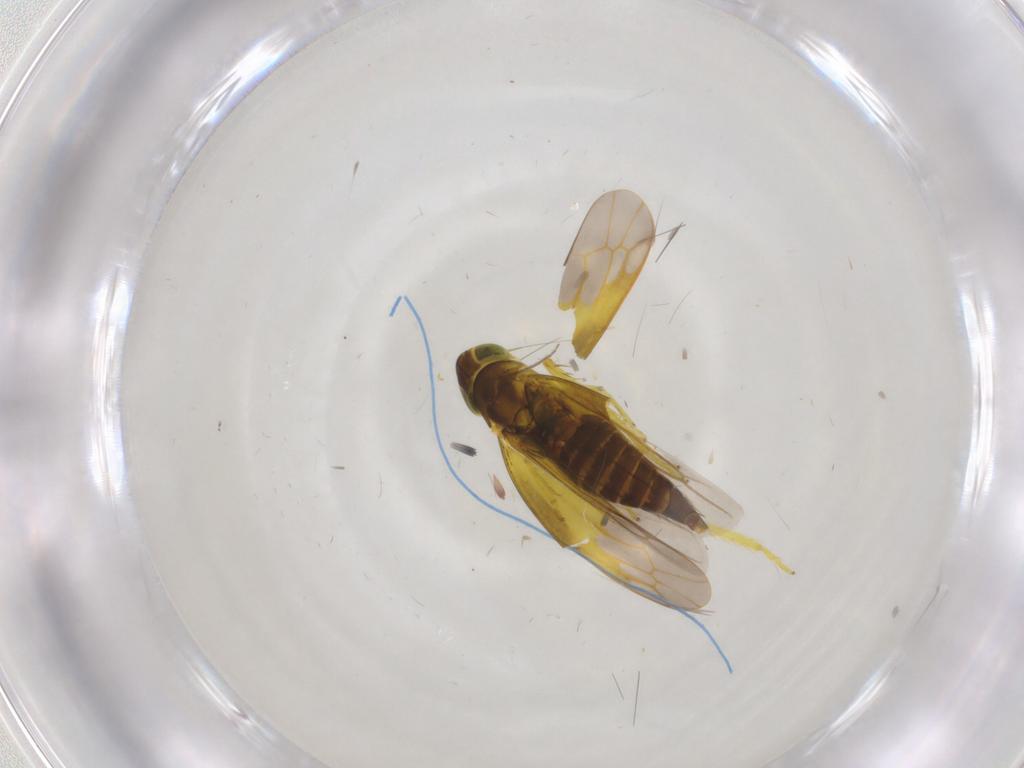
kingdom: Animalia
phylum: Arthropoda
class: Insecta
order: Hemiptera
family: Cicadellidae
